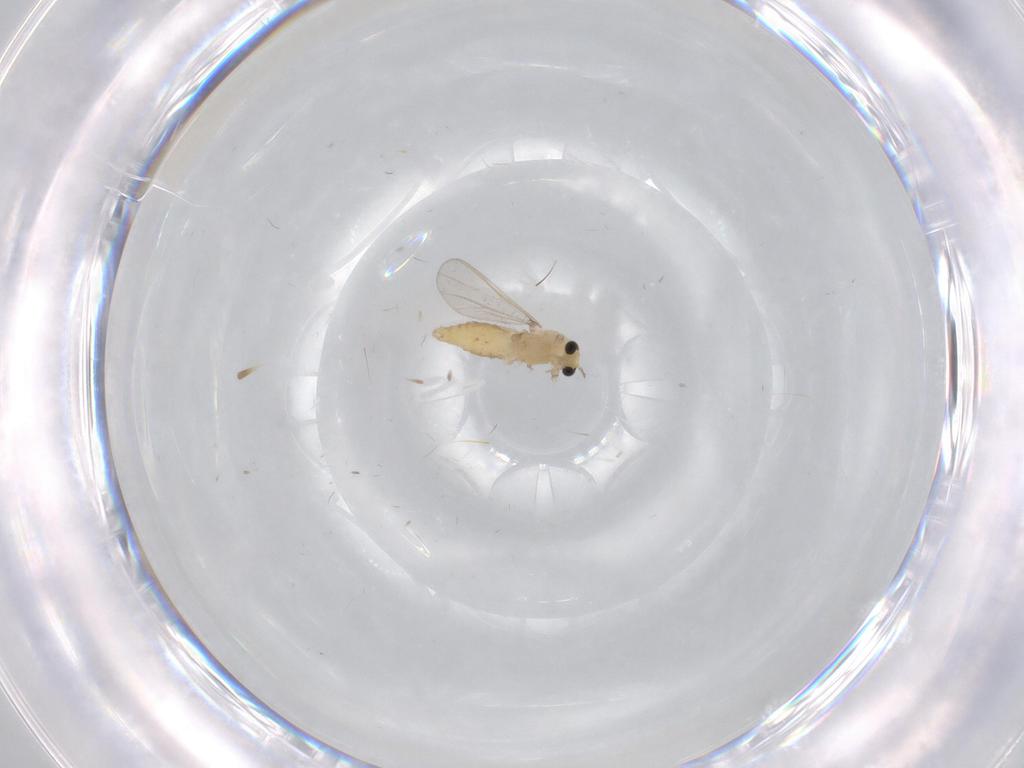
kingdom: Animalia
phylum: Arthropoda
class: Insecta
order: Diptera
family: Chironomidae
